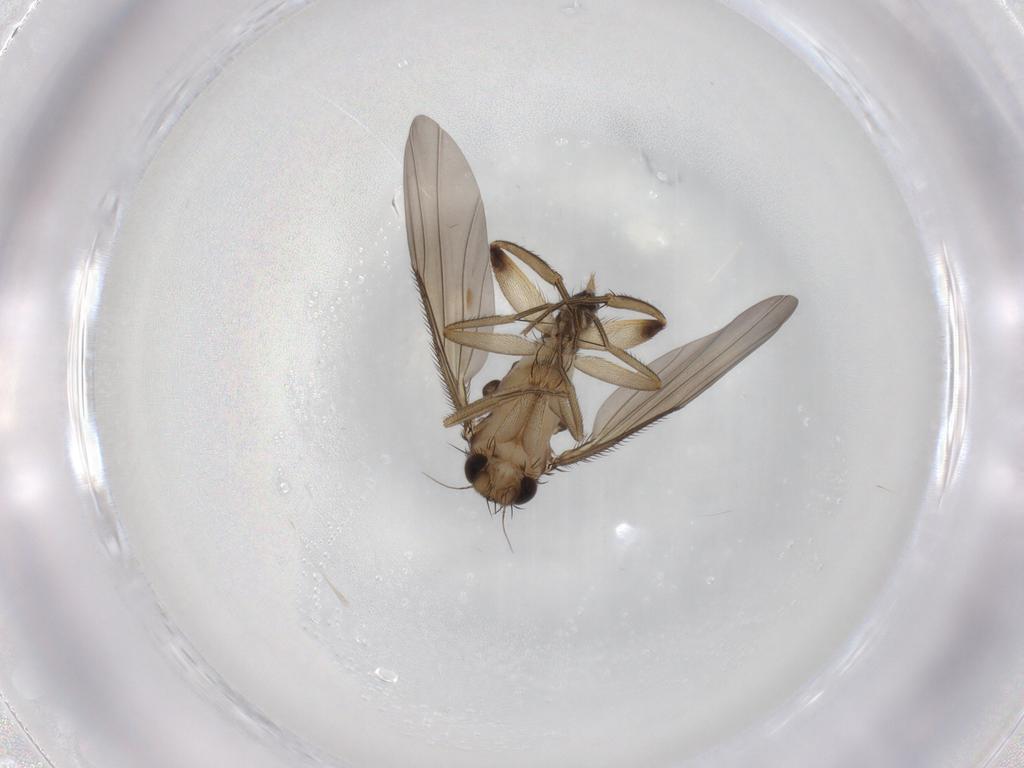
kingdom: Animalia
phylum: Arthropoda
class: Insecta
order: Diptera
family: Phoridae
